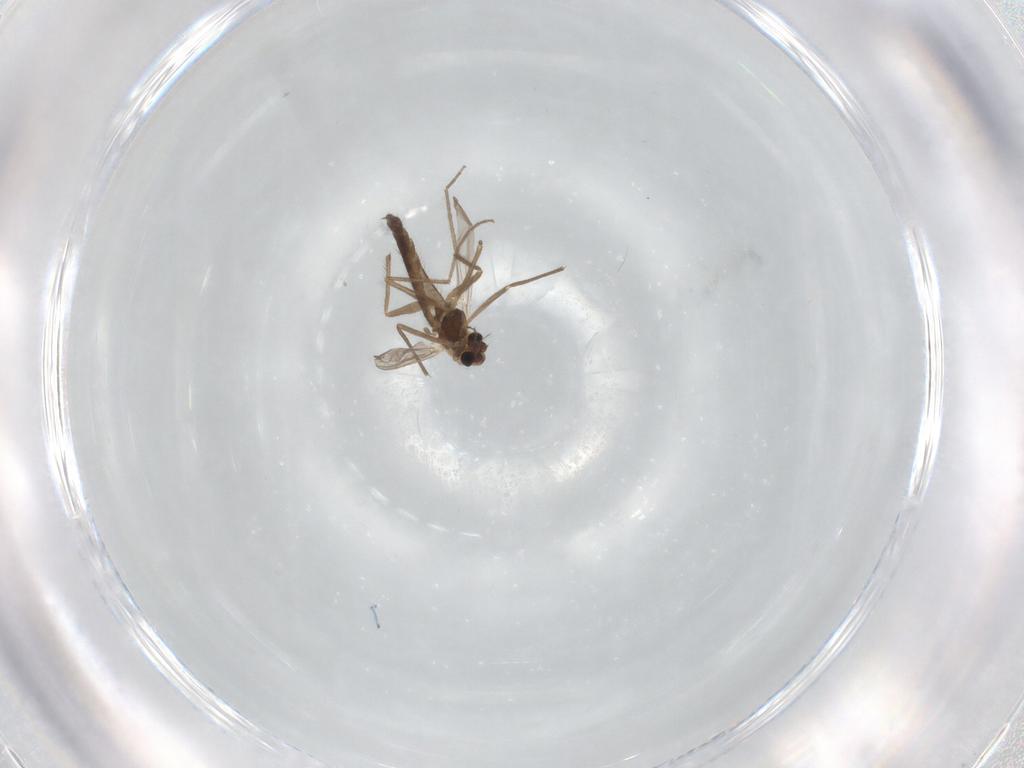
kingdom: Animalia
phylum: Arthropoda
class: Insecta
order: Diptera
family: Chironomidae
